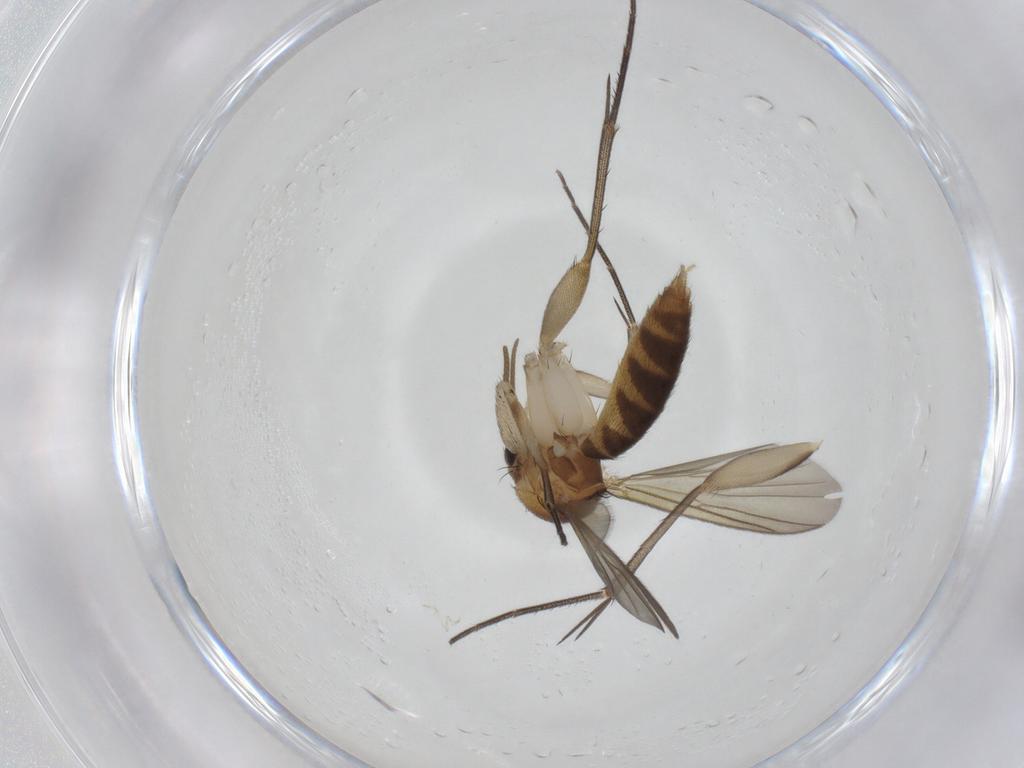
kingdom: Animalia
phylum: Arthropoda
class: Insecta
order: Diptera
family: Mycetophilidae
